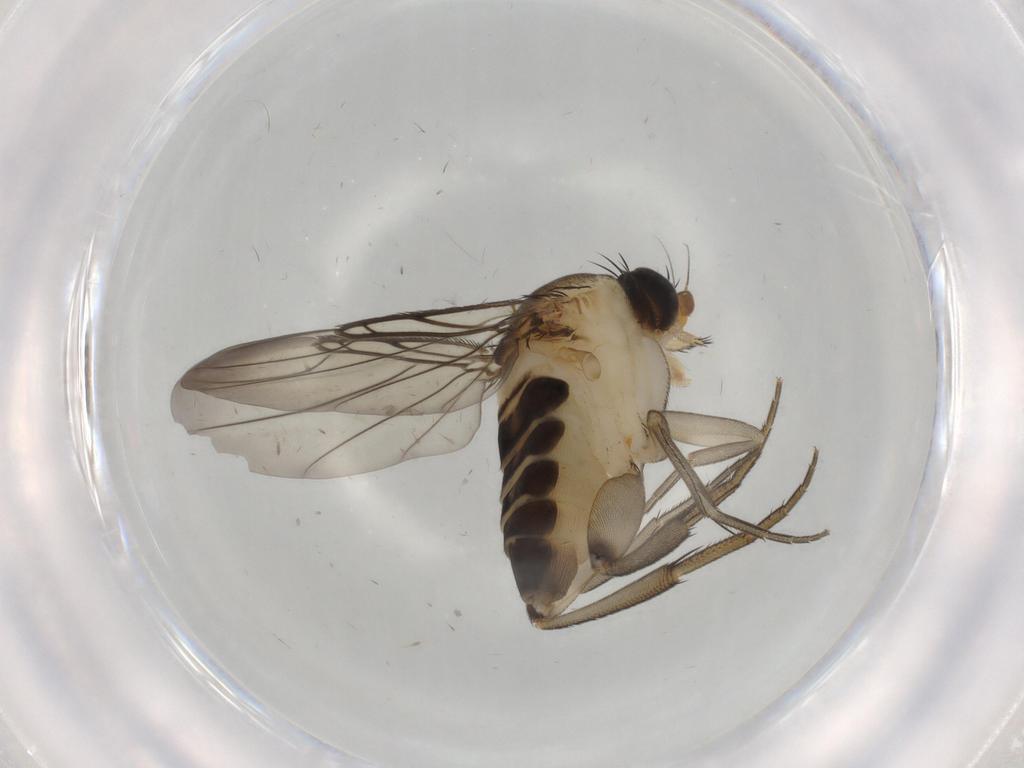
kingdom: Animalia
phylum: Arthropoda
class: Insecta
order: Diptera
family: Phoridae
